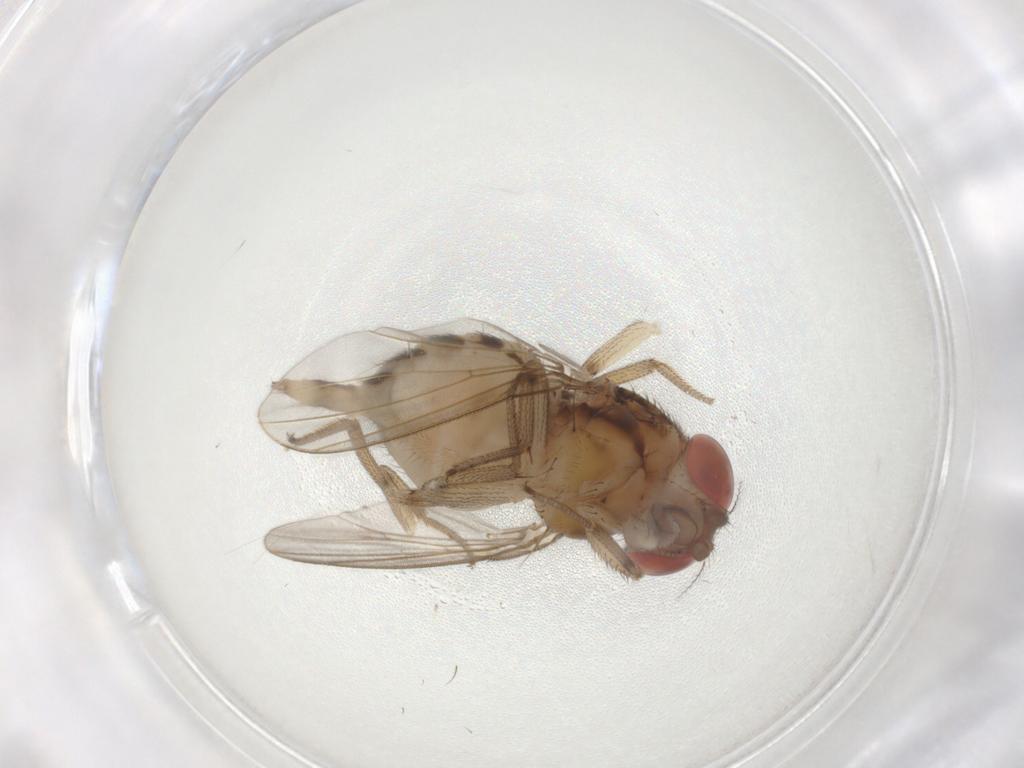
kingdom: Animalia
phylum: Arthropoda
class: Insecta
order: Diptera
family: Drosophilidae
